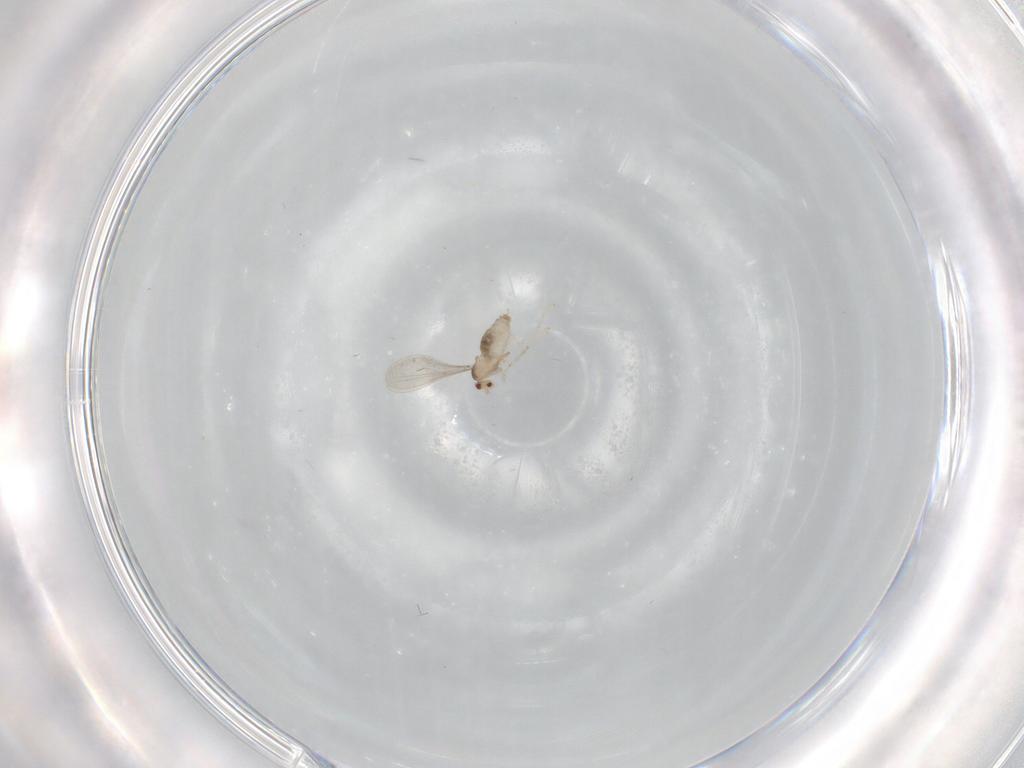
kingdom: Animalia
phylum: Arthropoda
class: Insecta
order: Diptera
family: Cecidomyiidae
